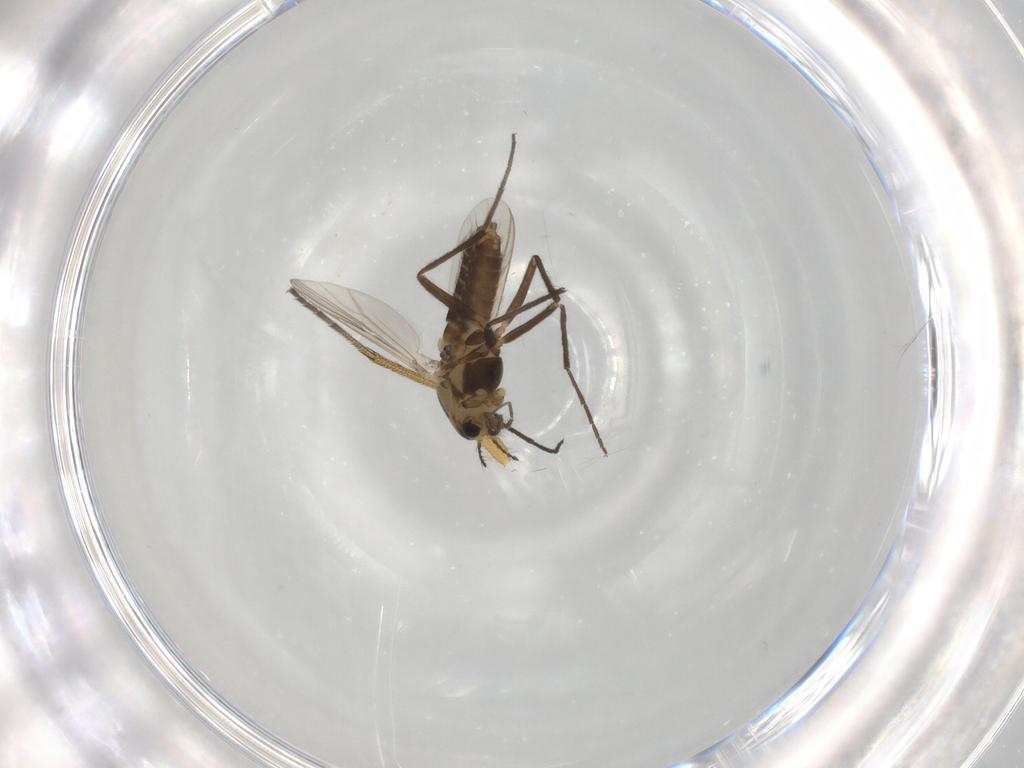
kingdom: Animalia
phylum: Arthropoda
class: Insecta
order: Diptera
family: Chironomidae
